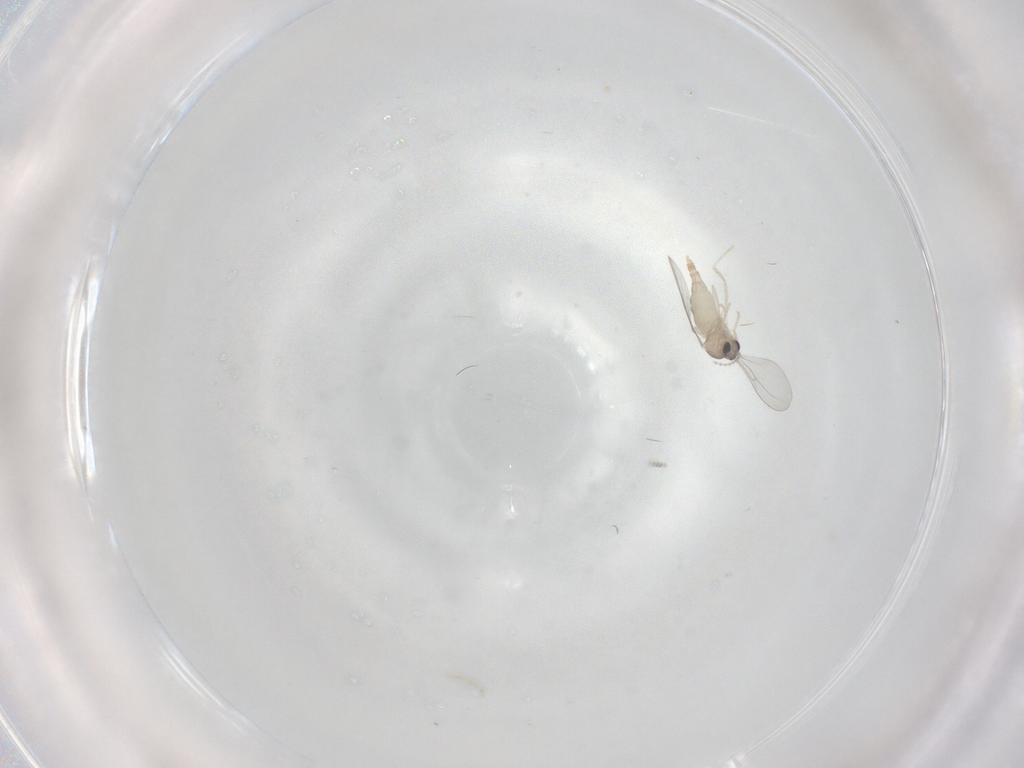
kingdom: Animalia
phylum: Arthropoda
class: Insecta
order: Diptera
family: Cecidomyiidae
